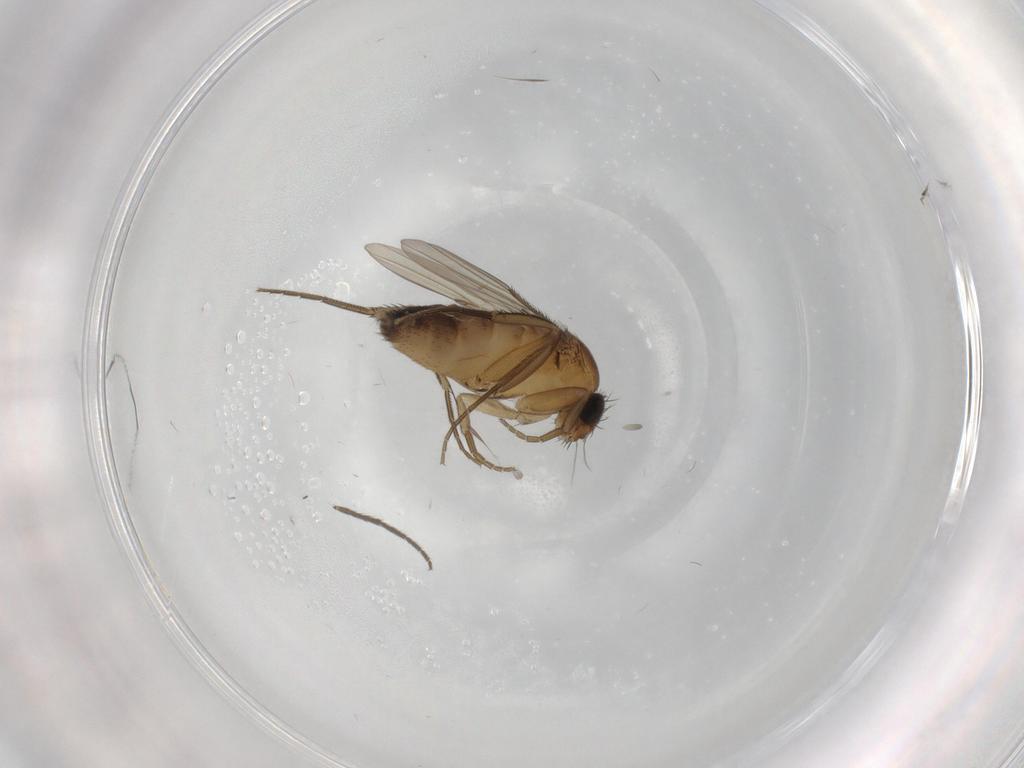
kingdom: Animalia
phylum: Arthropoda
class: Insecta
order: Diptera
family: Phoridae
